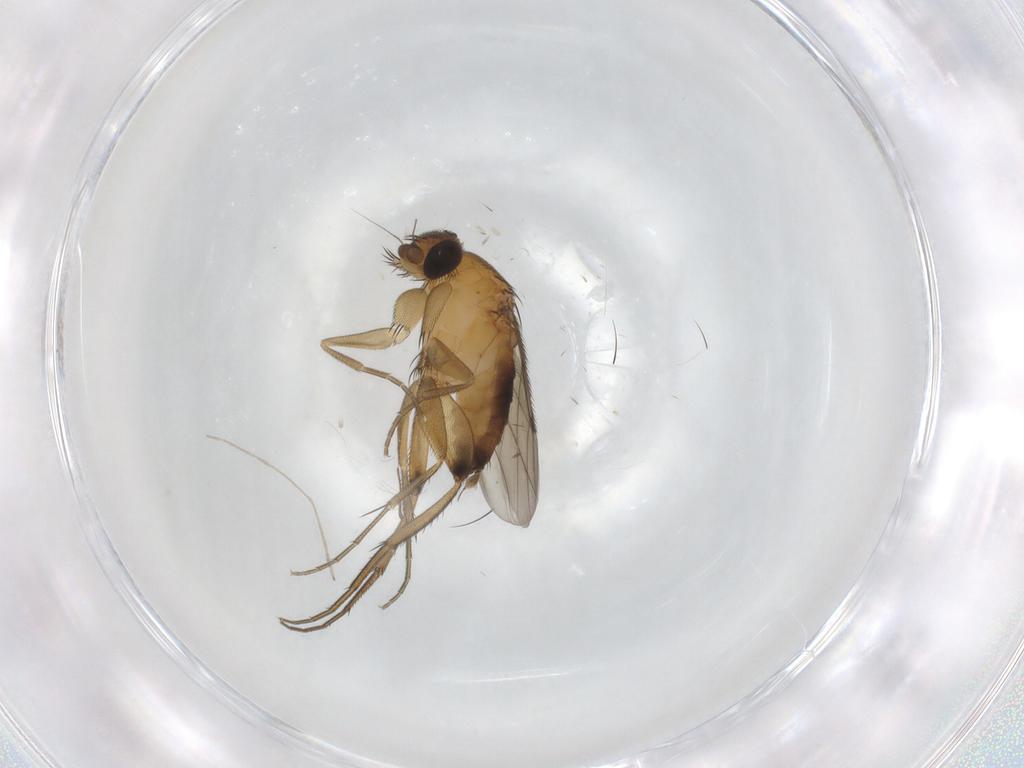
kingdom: Animalia
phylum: Arthropoda
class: Insecta
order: Diptera
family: Phoridae
